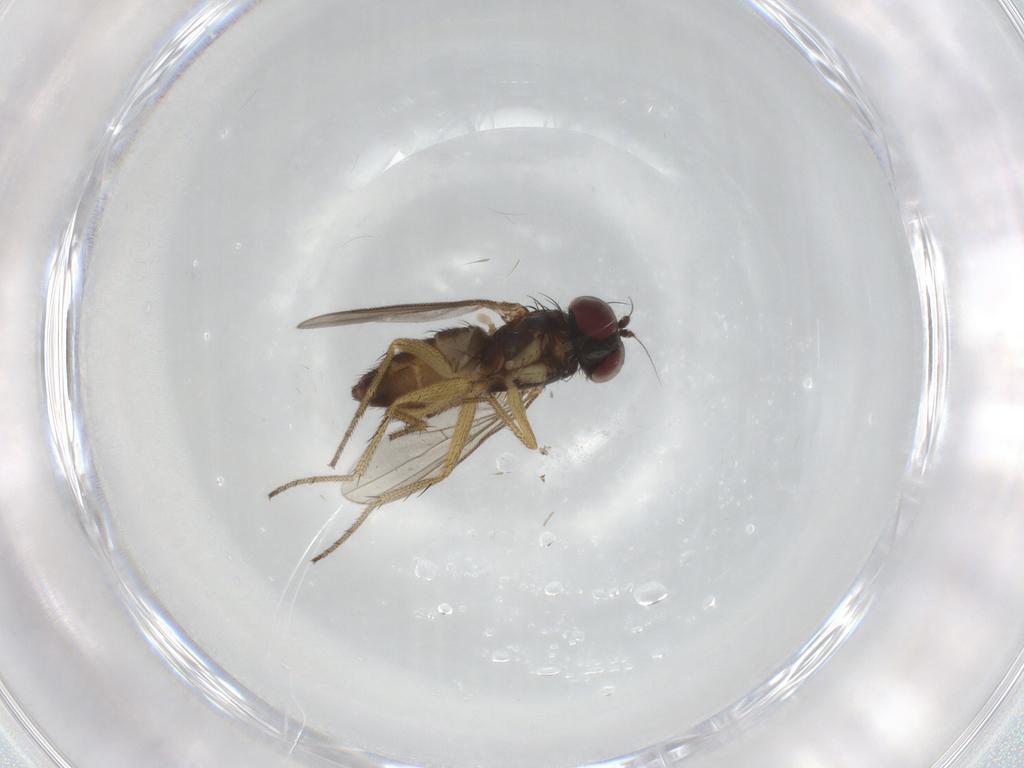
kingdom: Animalia
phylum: Arthropoda
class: Insecta
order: Diptera
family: Dolichopodidae
